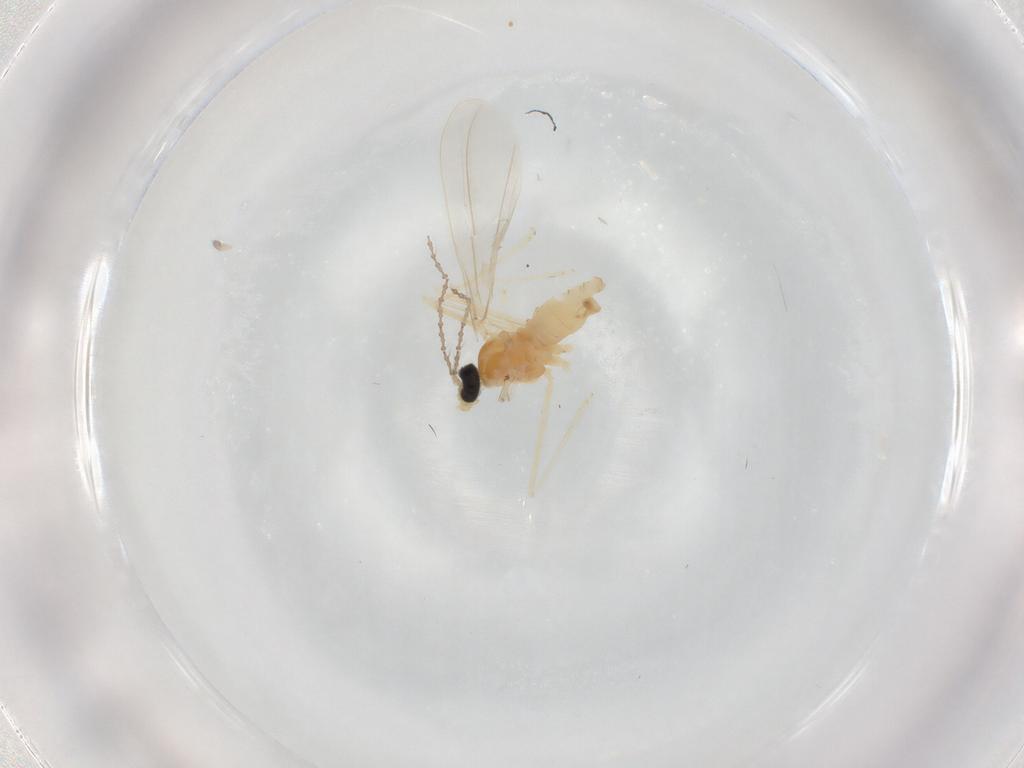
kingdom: Animalia
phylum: Arthropoda
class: Insecta
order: Diptera
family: Cecidomyiidae
